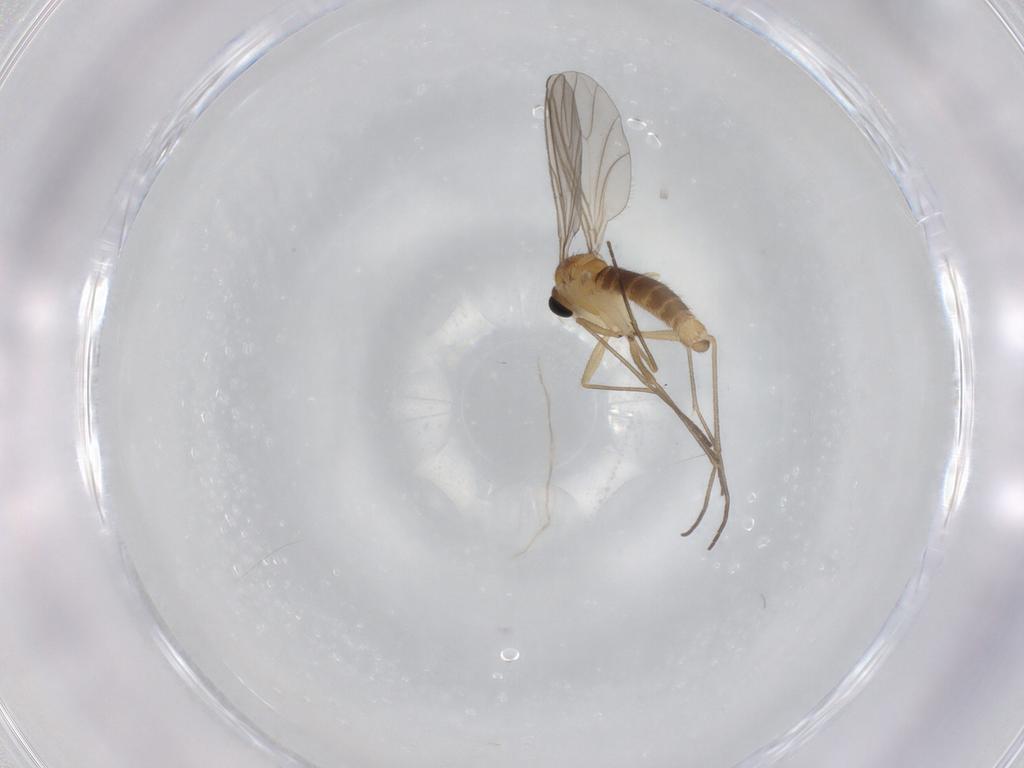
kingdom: Animalia
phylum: Arthropoda
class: Insecta
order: Diptera
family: Sciaridae
